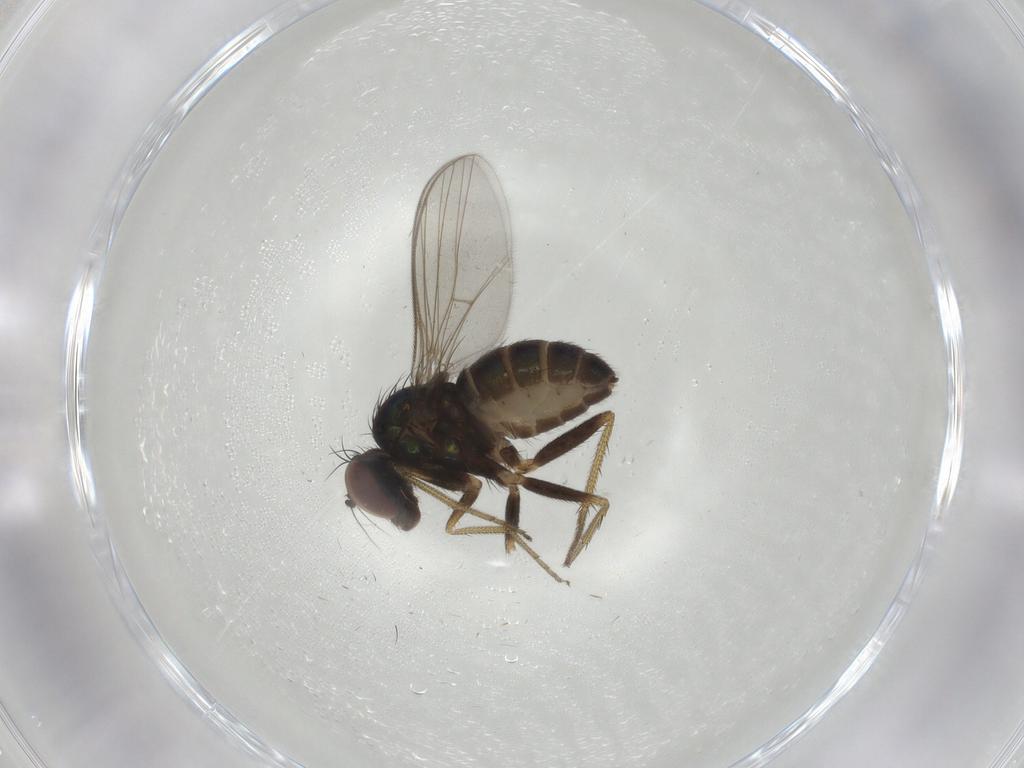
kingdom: Animalia
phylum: Arthropoda
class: Insecta
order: Diptera
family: Dolichopodidae
